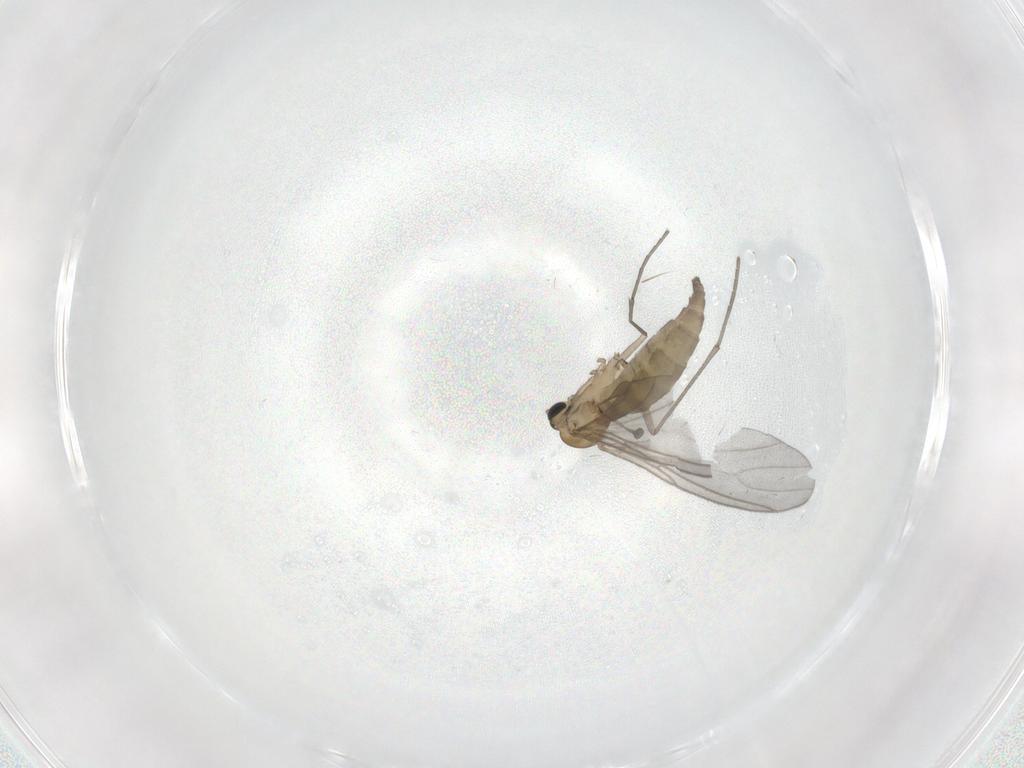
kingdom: Animalia
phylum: Arthropoda
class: Insecta
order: Diptera
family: Sciaridae
